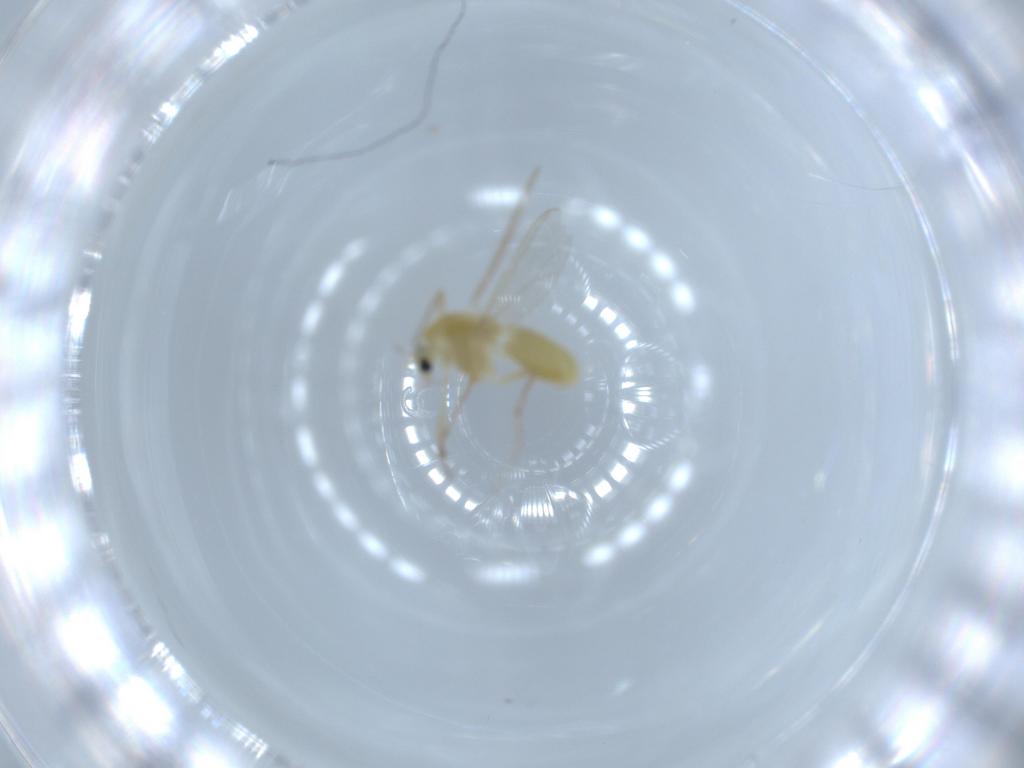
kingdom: Animalia
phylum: Arthropoda
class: Insecta
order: Diptera
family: Chironomidae
